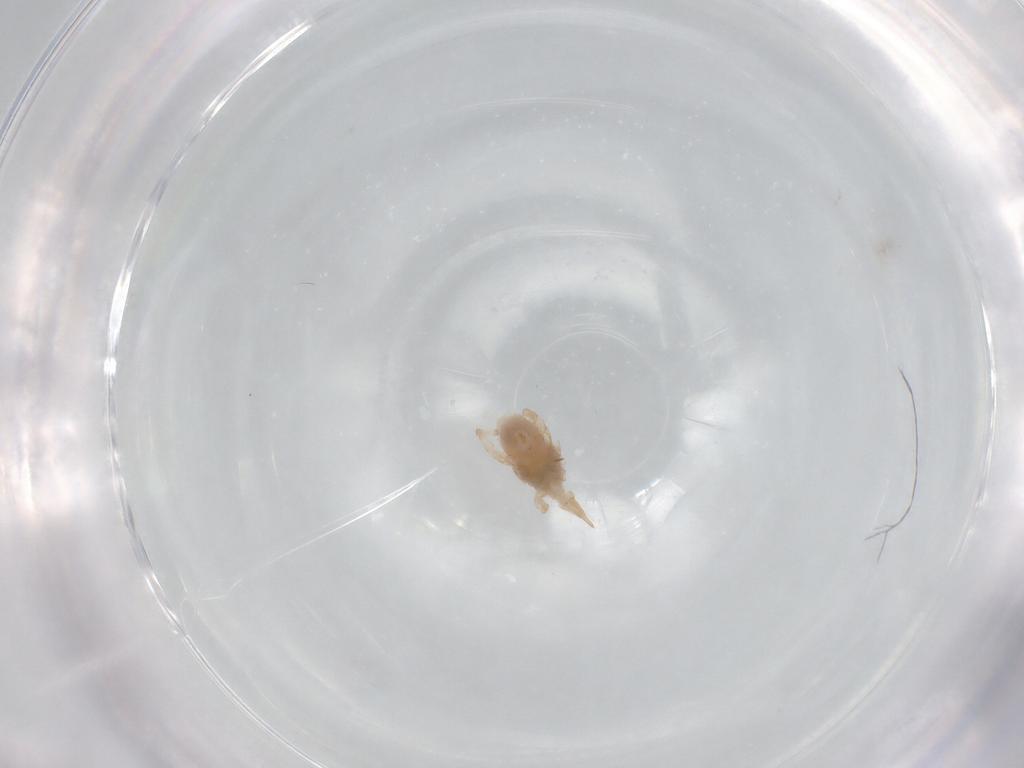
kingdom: Animalia
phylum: Arthropoda
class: Arachnida
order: Trombidiformes
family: Bdellidae
